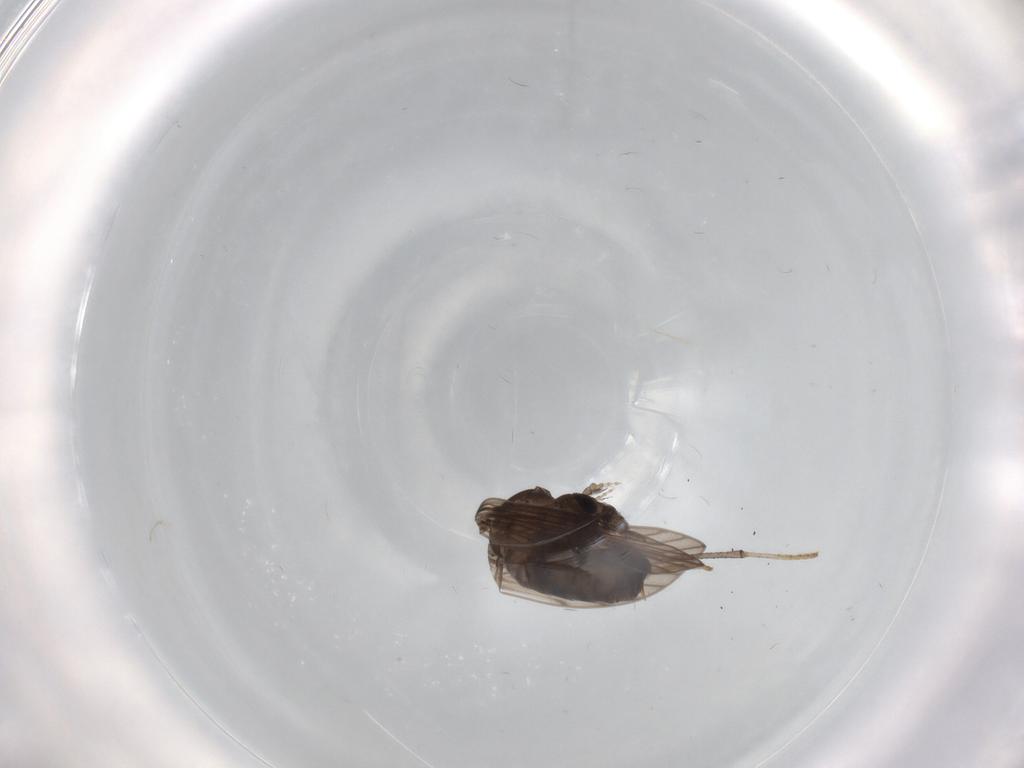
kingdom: Animalia
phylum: Arthropoda
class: Insecta
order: Diptera
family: Psychodidae
